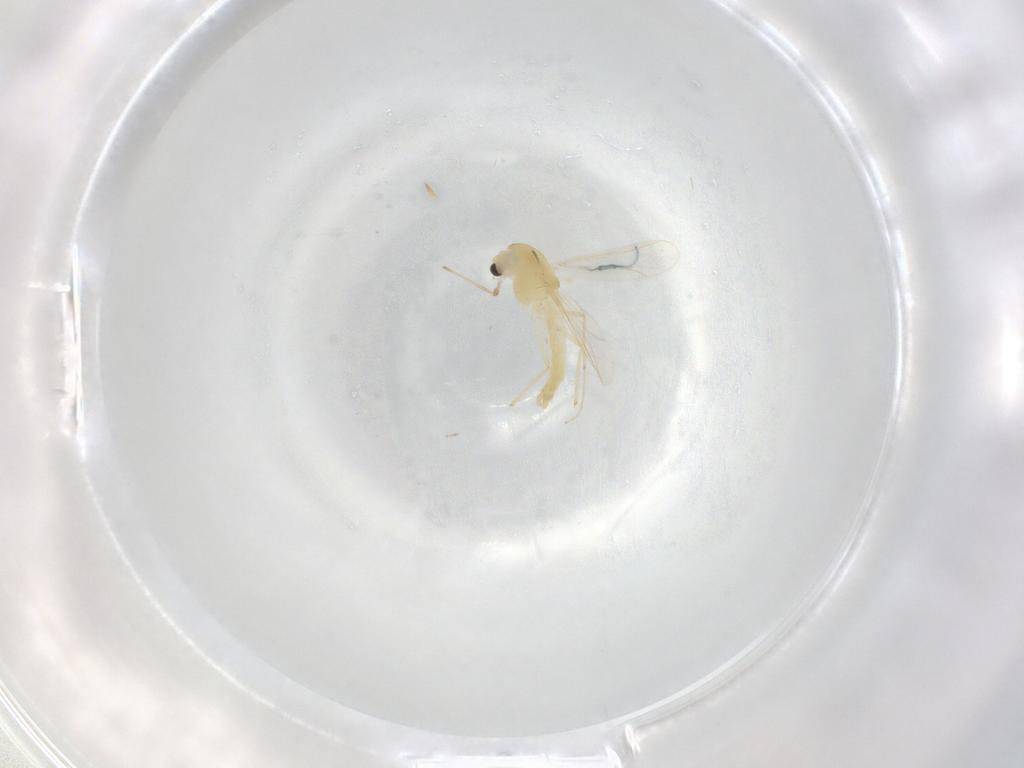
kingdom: Animalia
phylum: Arthropoda
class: Insecta
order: Diptera
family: Chironomidae
